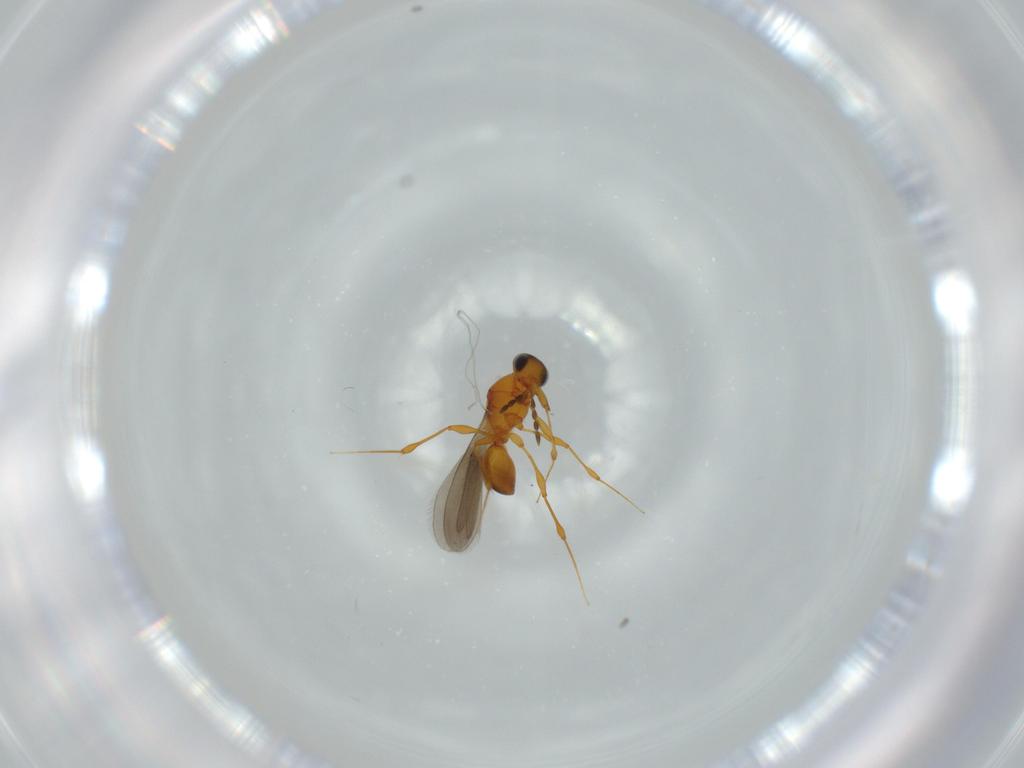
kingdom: Animalia
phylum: Arthropoda
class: Insecta
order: Hymenoptera
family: Platygastridae
